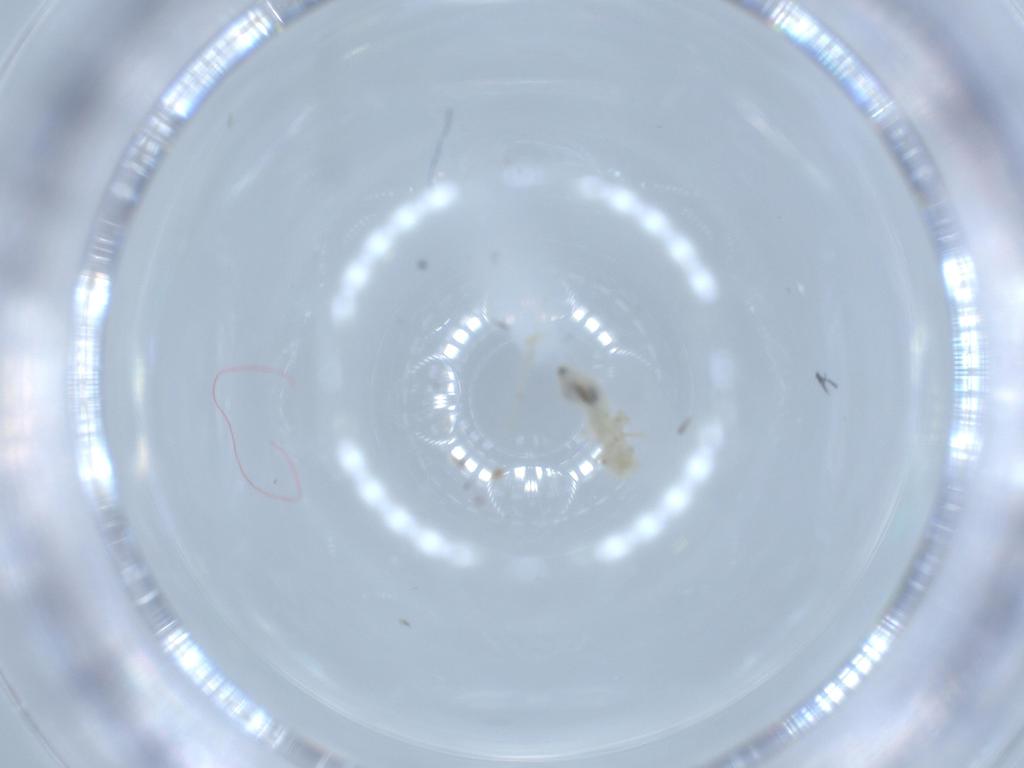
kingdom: Animalia
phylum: Arthropoda
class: Insecta
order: Psocodea
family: Caeciliusidae
